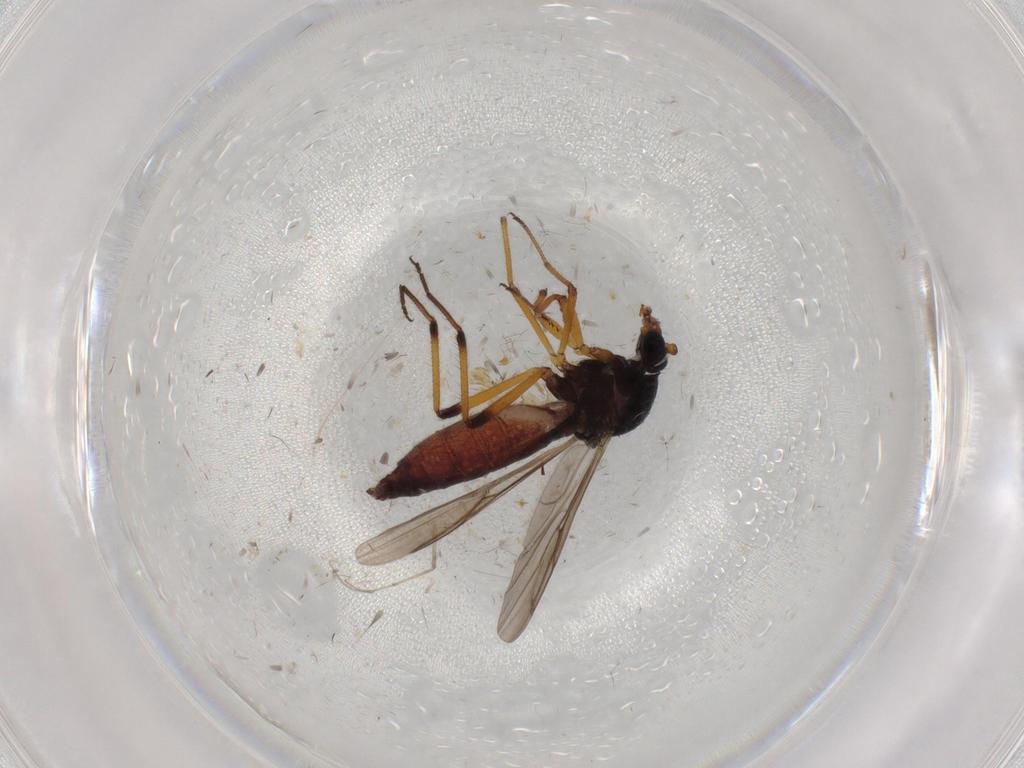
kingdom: Animalia
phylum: Arthropoda
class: Insecta
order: Diptera
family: Ceratopogonidae
